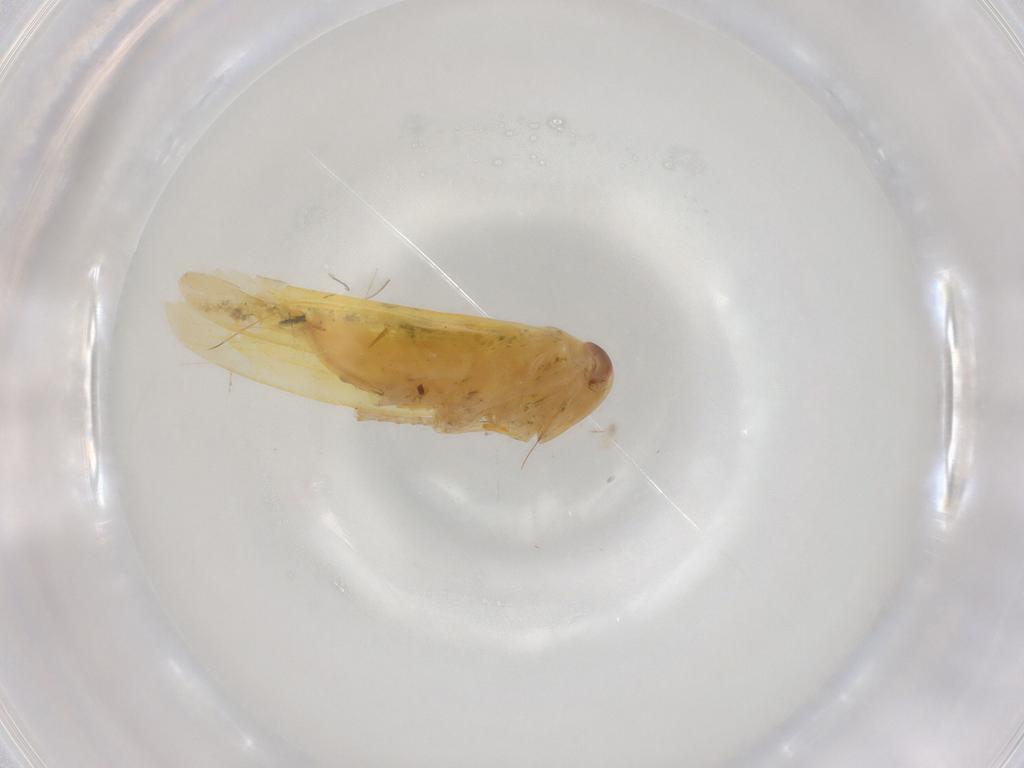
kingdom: Animalia
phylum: Arthropoda
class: Insecta
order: Hemiptera
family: Cicadellidae
